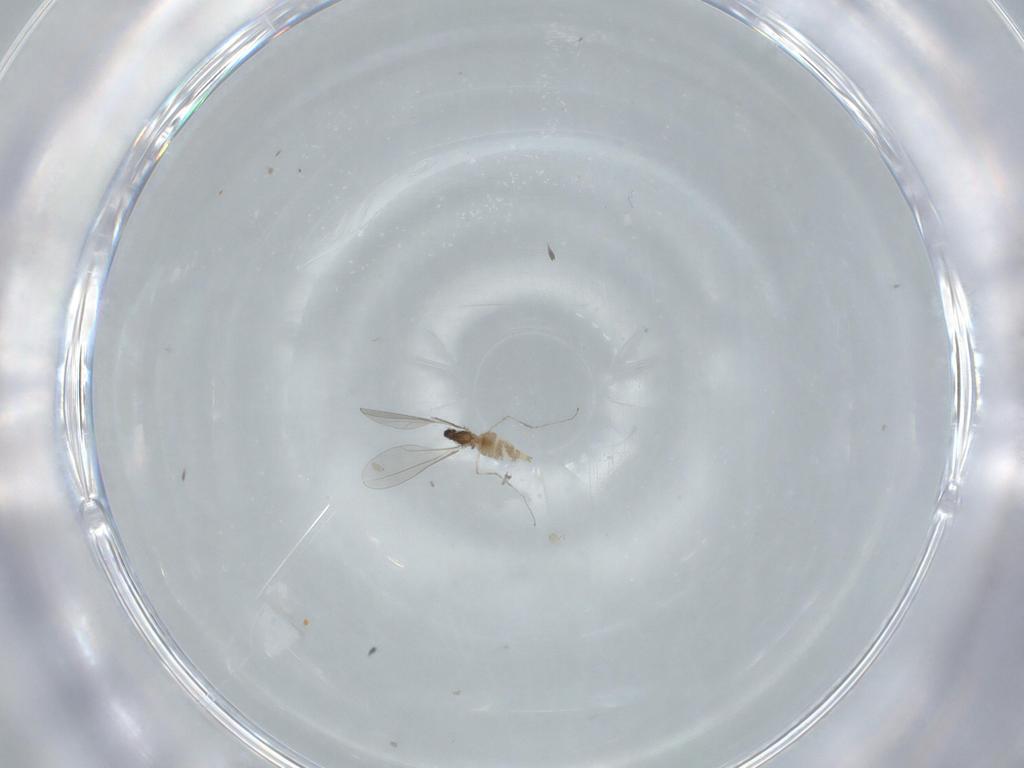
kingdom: Animalia
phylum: Arthropoda
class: Insecta
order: Diptera
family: Cecidomyiidae
